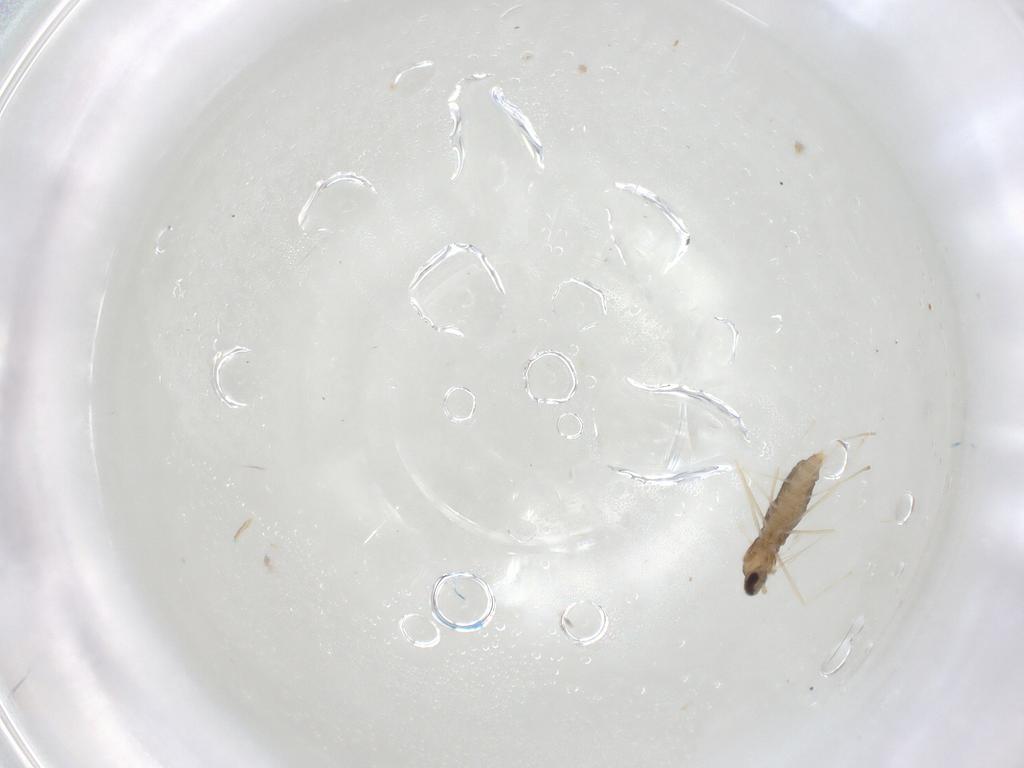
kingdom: Animalia
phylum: Arthropoda
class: Insecta
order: Diptera
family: Cecidomyiidae
